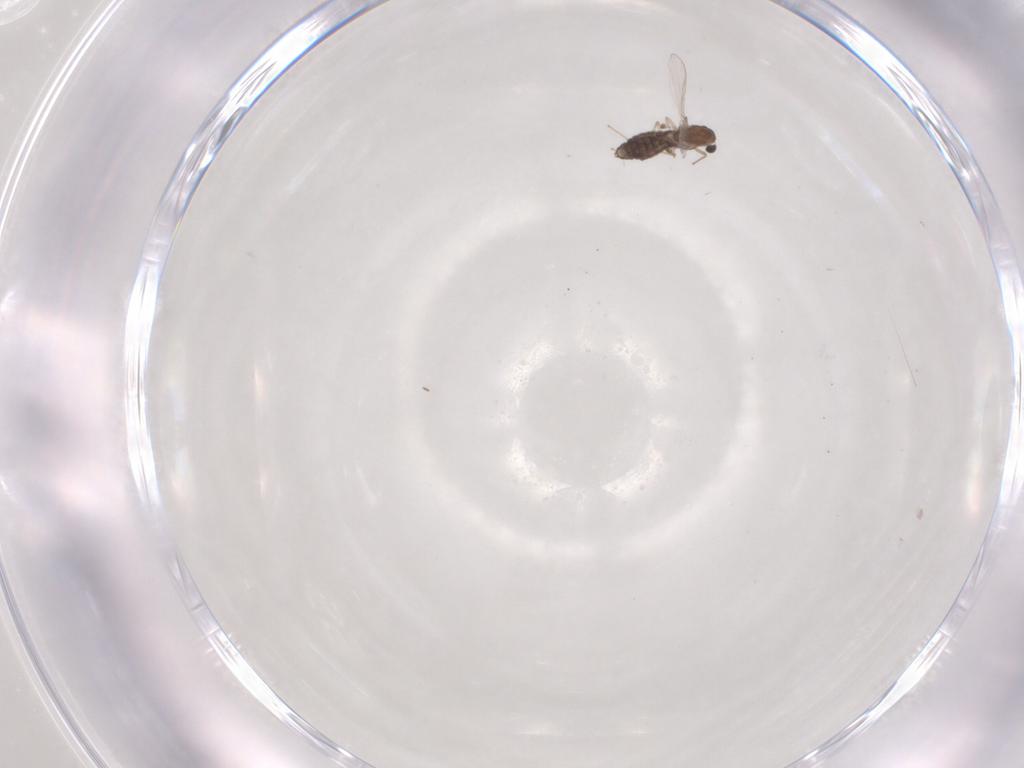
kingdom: Animalia
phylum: Arthropoda
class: Insecta
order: Diptera
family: Chironomidae
